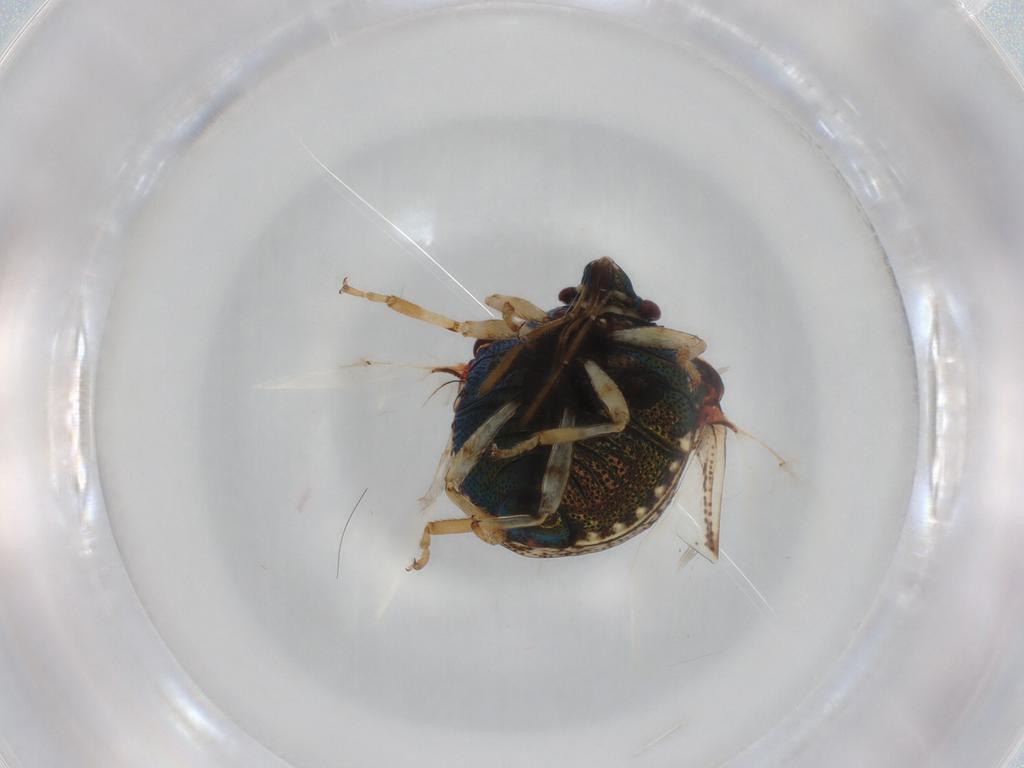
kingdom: Animalia
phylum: Arthropoda
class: Insecta
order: Hemiptera
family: Pentatomidae
